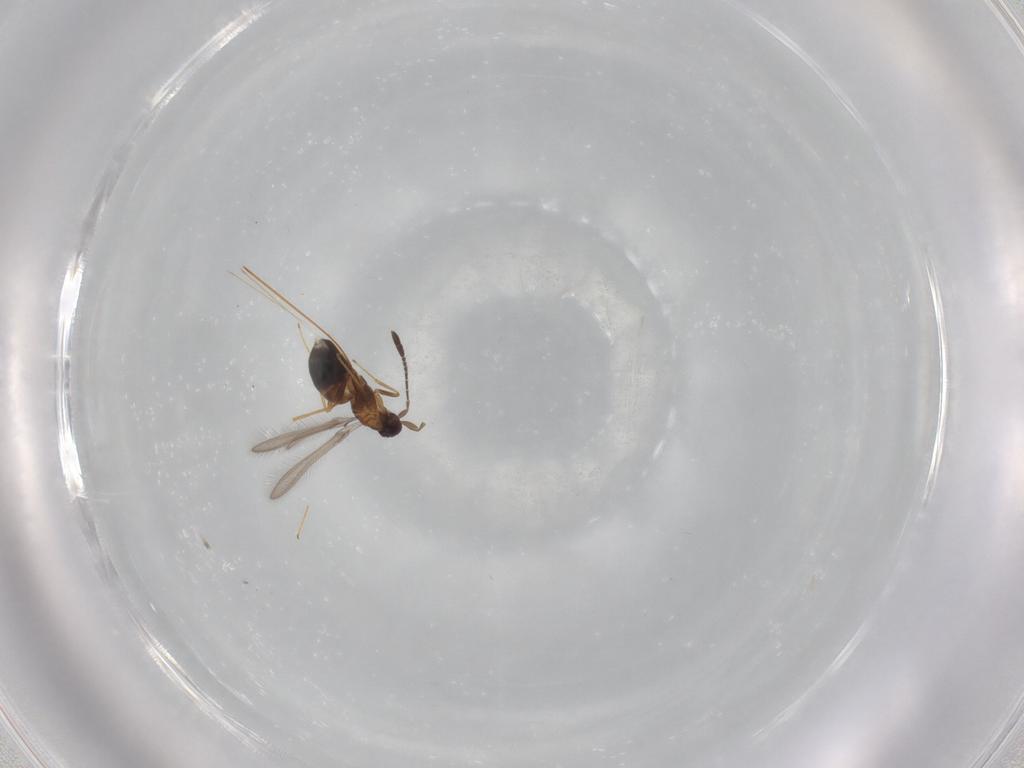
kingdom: Animalia
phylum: Arthropoda
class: Insecta
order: Hymenoptera
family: Mymaridae
